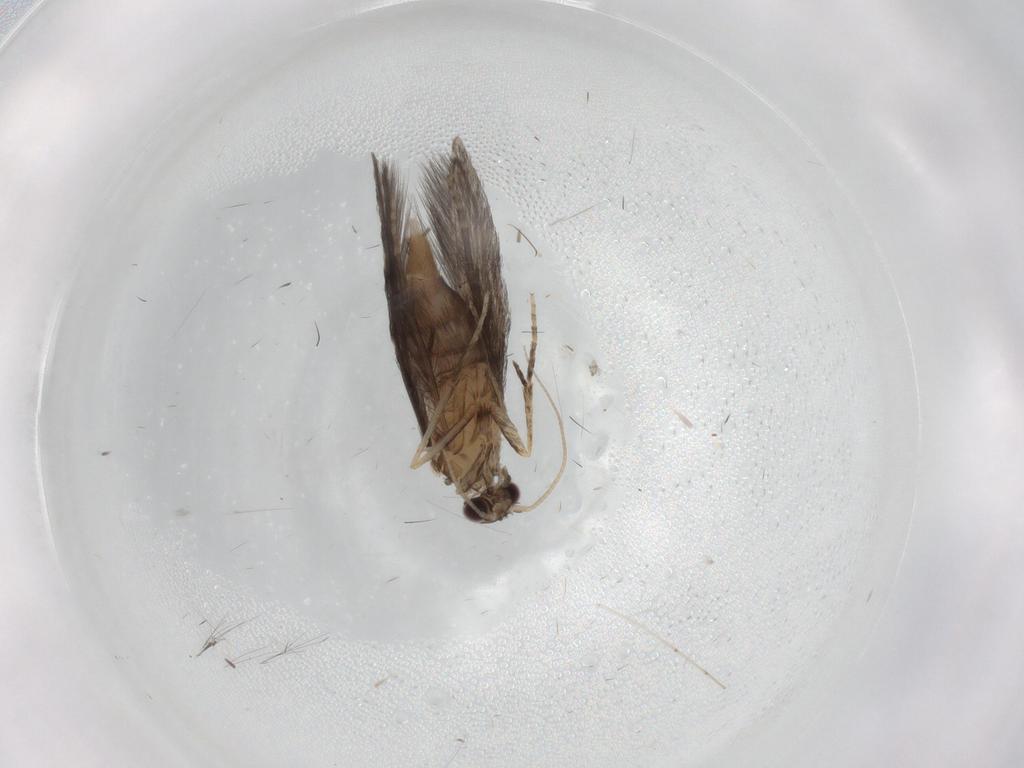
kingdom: Animalia
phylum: Arthropoda
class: Insecta
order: Trichoptera
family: Hydroptilidae
